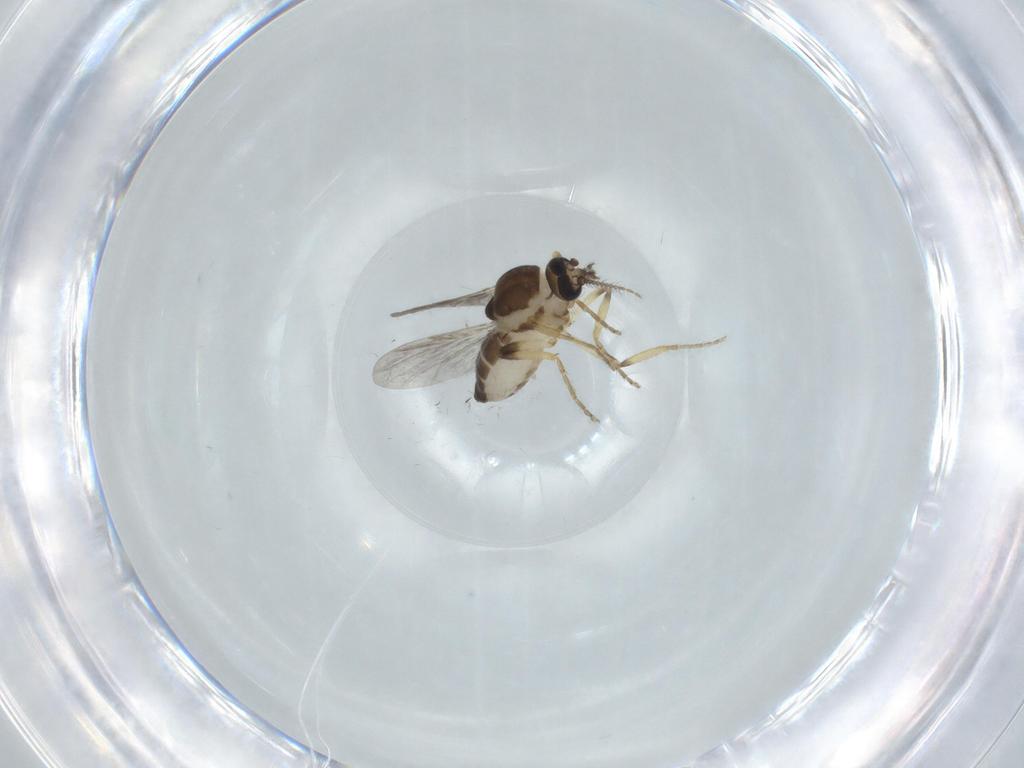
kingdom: Animalia
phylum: Arthropoda
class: Insecta
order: Diptera
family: Ceratopogonidae
